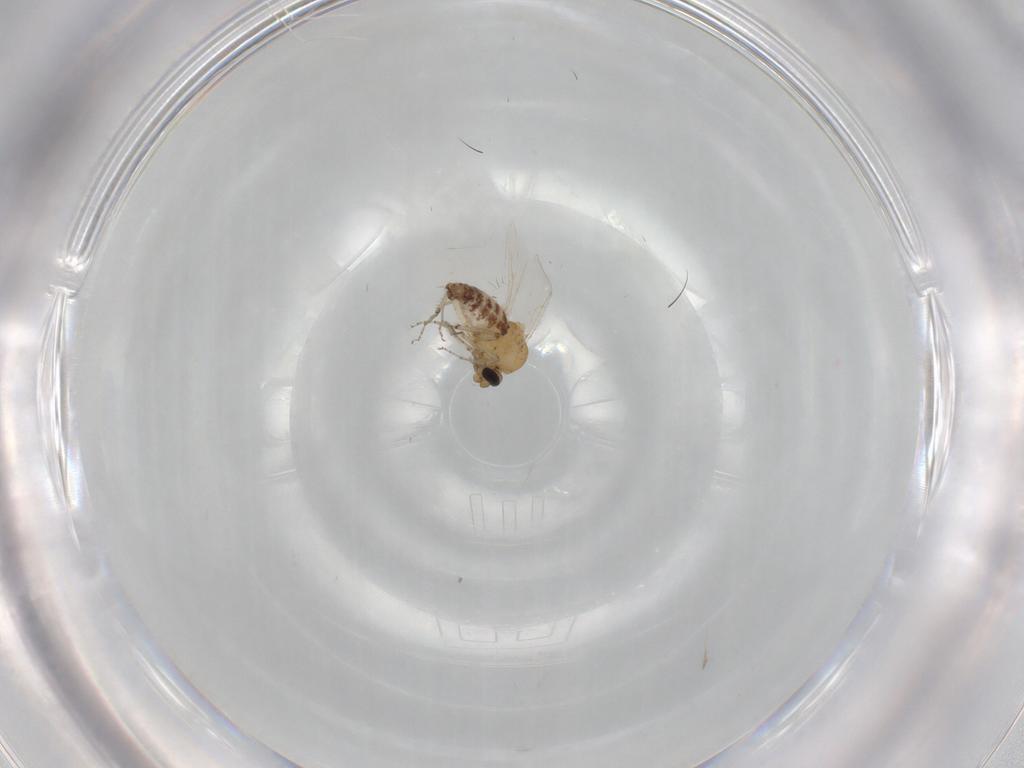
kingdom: Animalia
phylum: Arthropoda
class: Insecta
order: Diptera
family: Ceratopogonidae
